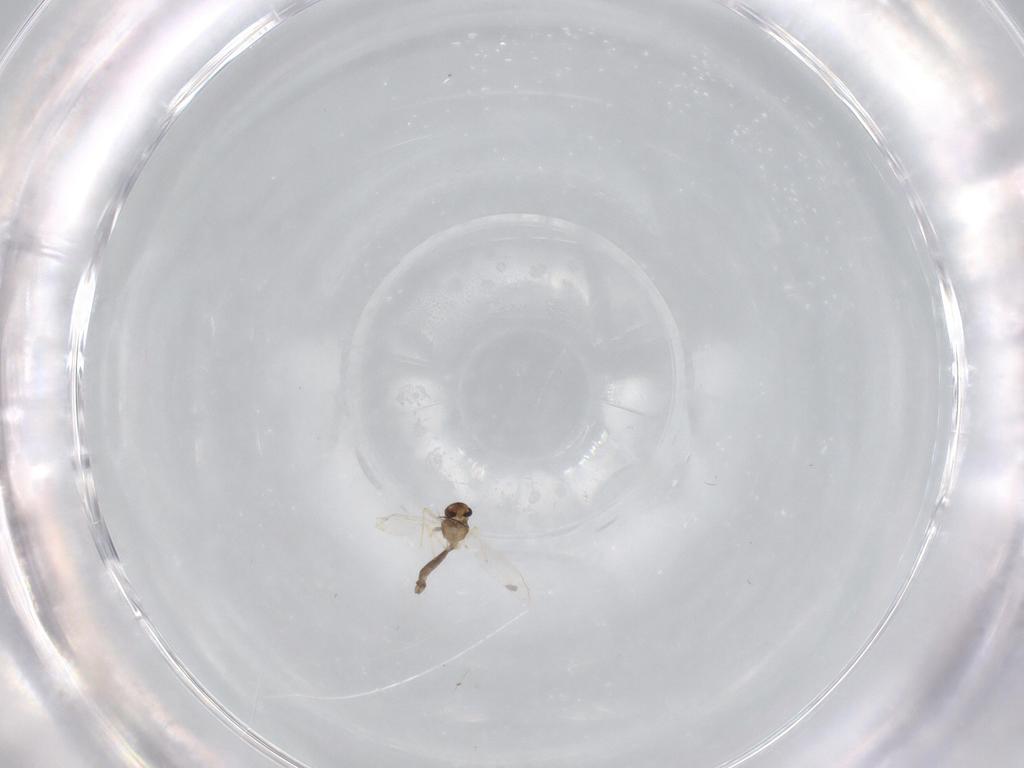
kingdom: Animalia
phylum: Arthropoda
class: Insecta
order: Diptera
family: Chironomidae
